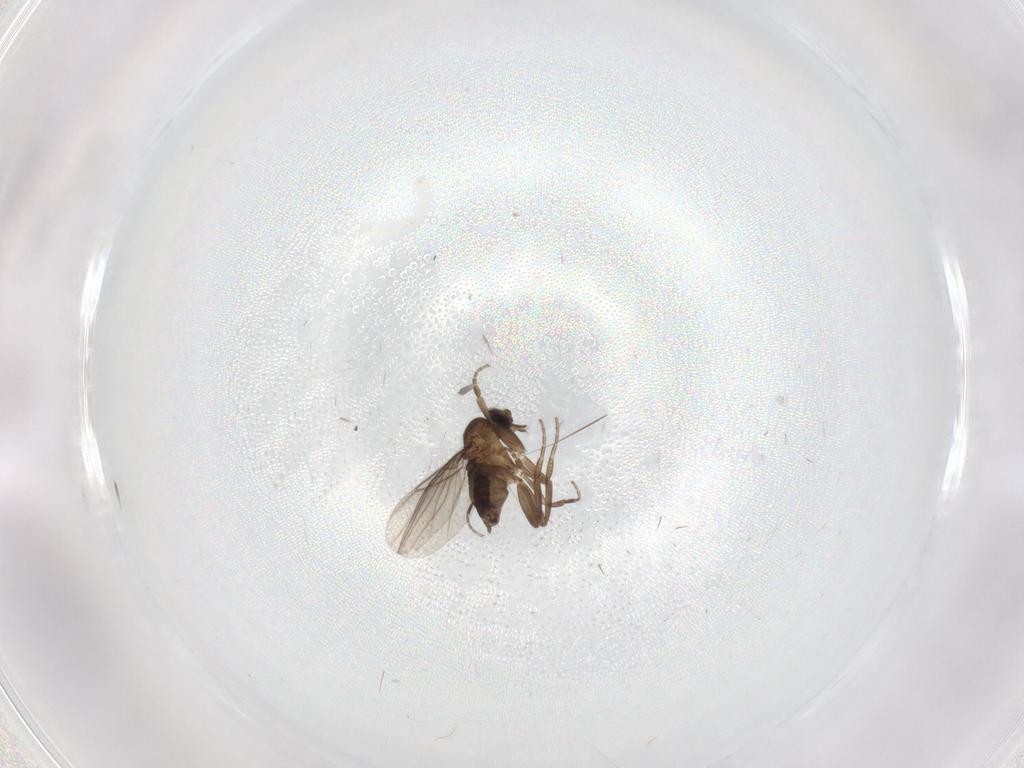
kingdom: Animalia
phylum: Arthropoda
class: Insecta
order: Diptera
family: Phoridae
